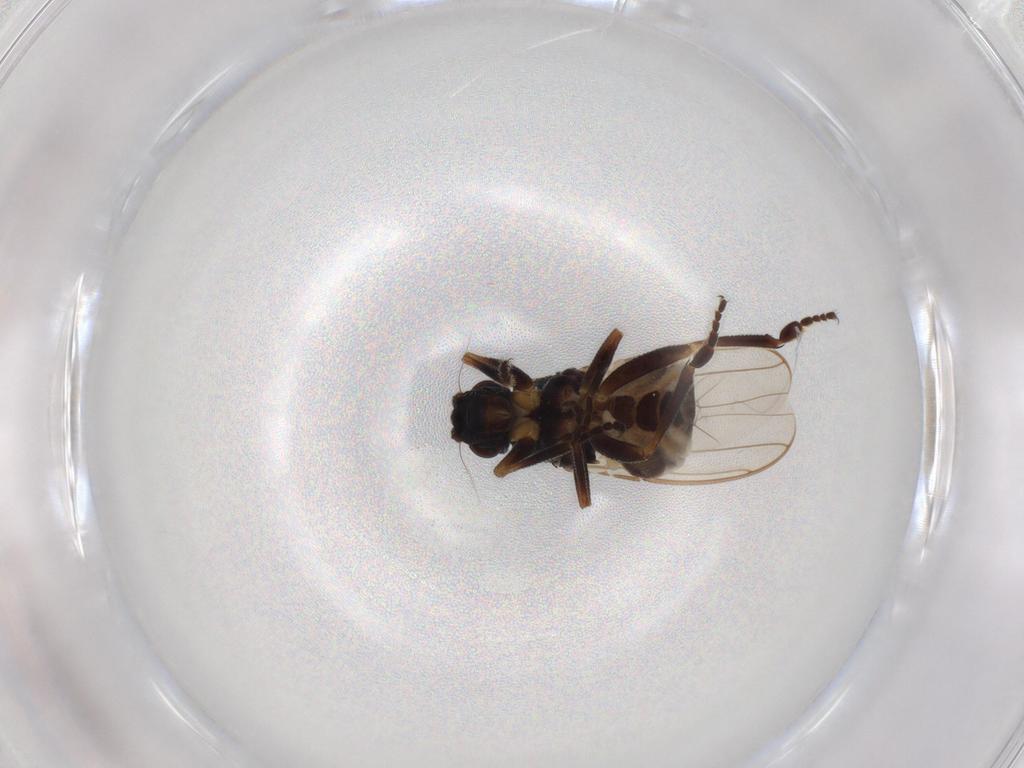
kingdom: Animalia
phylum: Arthropoda
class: Insecta
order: Diptera
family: Drosophilidae
